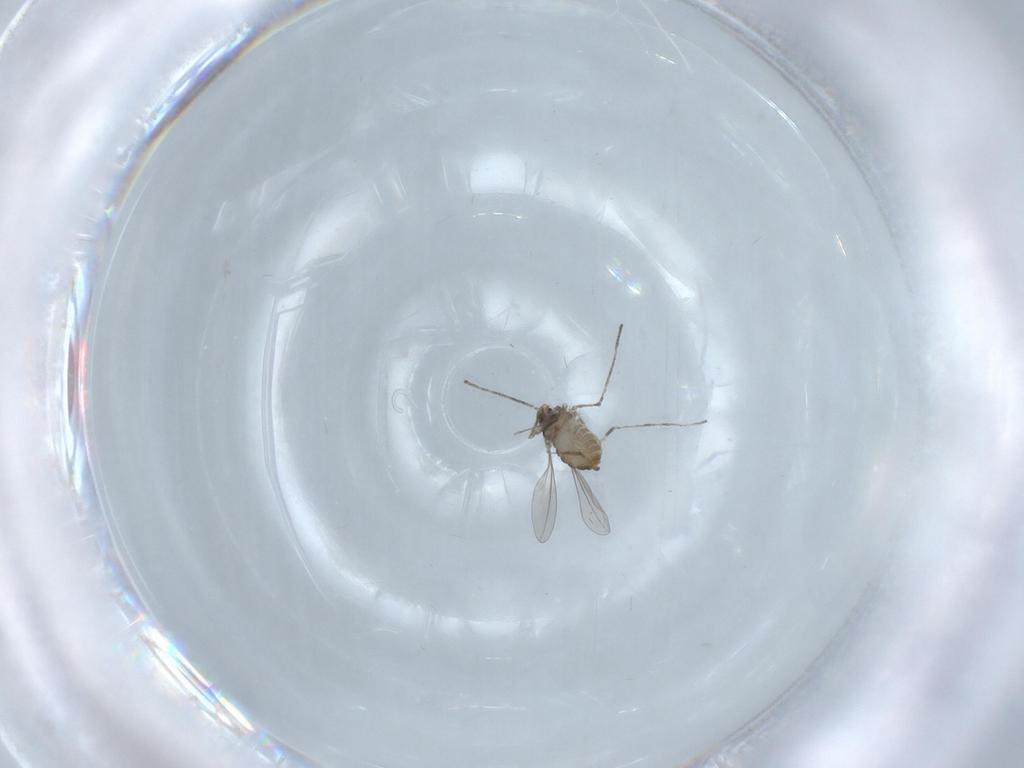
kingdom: Animalia
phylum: Arthropoda
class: Insecta
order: Diptera
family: Cecidomyiidae
